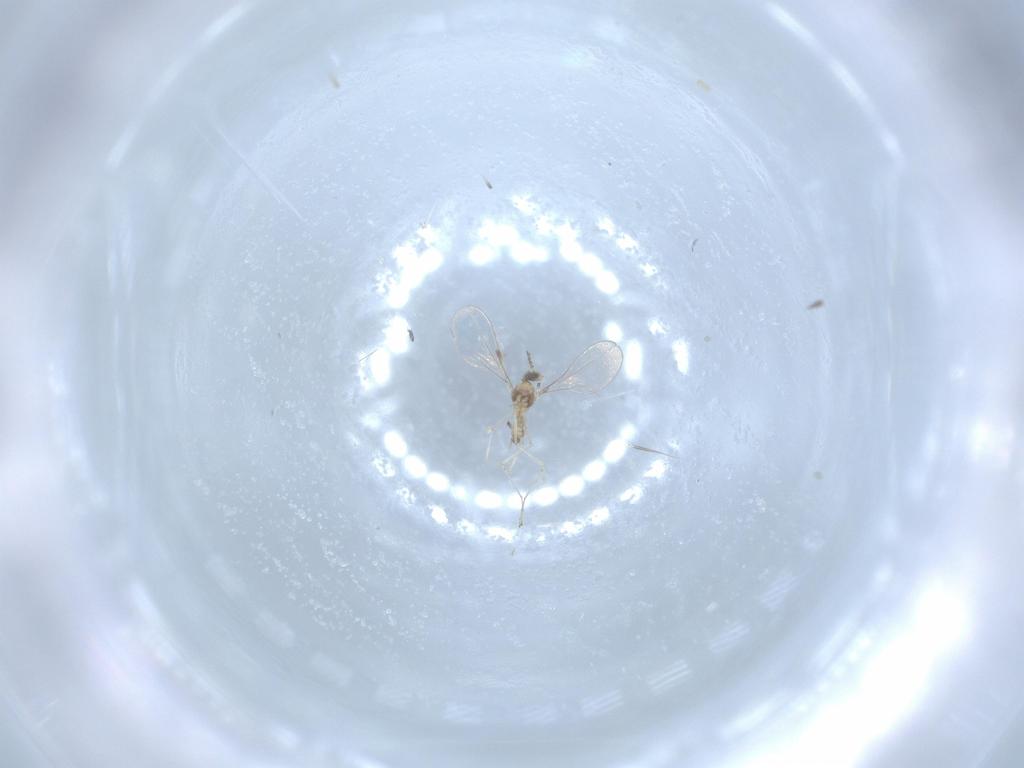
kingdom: Animalia
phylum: Arthropoda
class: Insecta
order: Diptera
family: Cecidomyiidae
